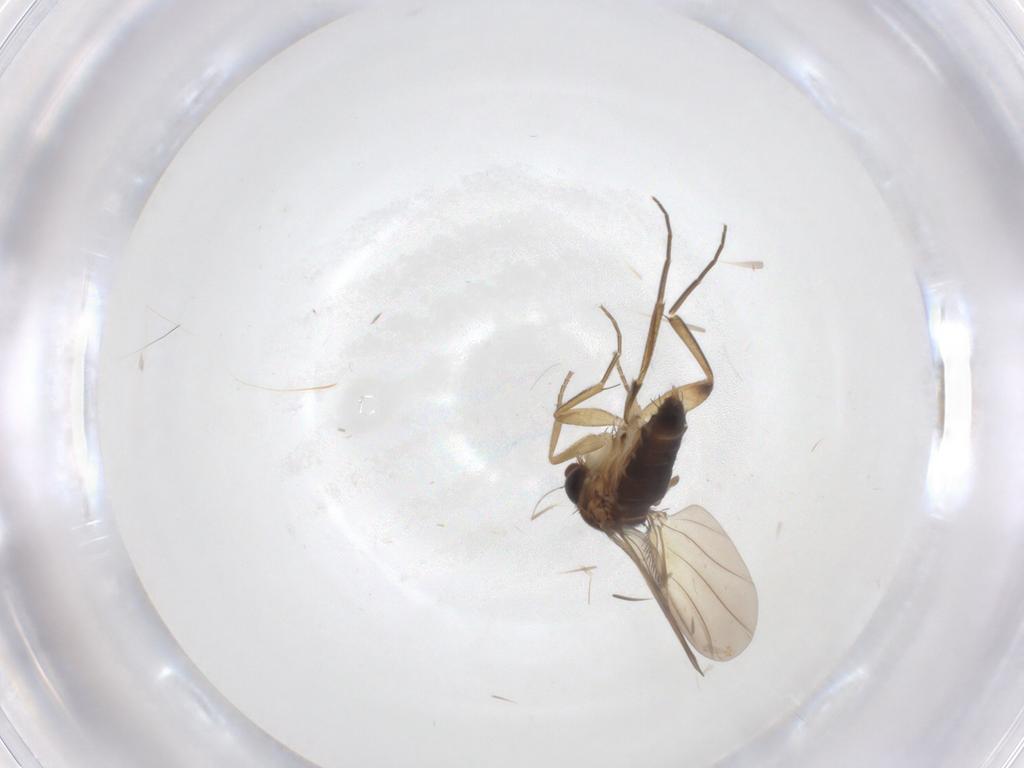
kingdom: Animalia
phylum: Arthropoda
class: Insecta
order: Diptera
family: Phoridae
